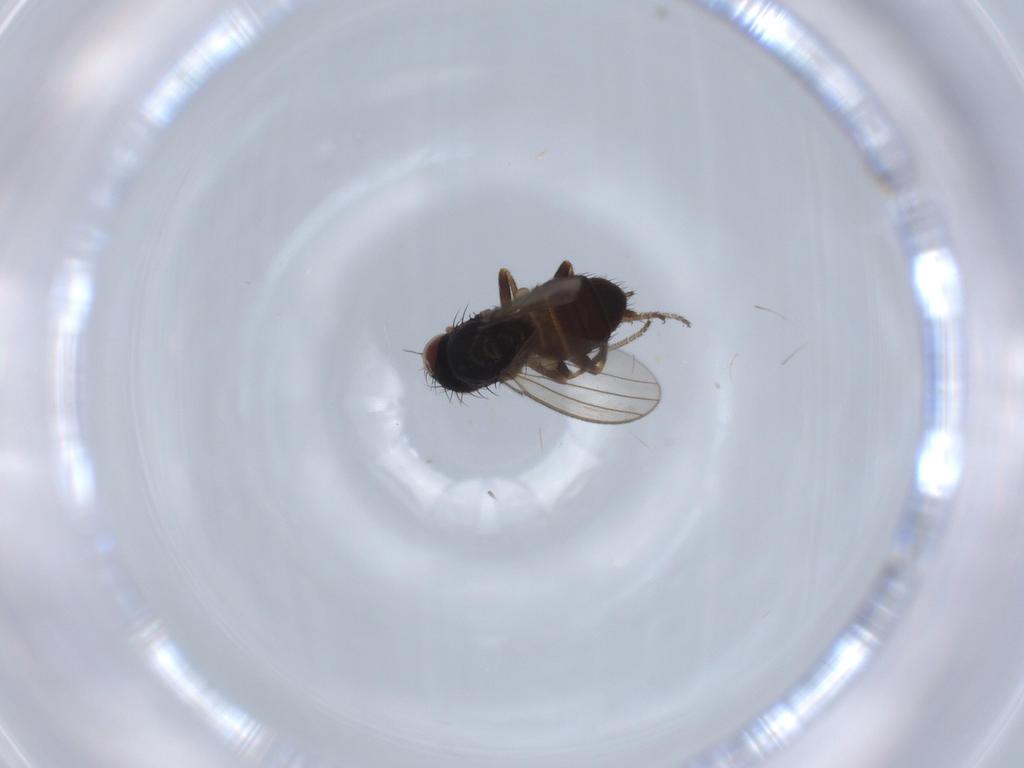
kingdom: Animalia
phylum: Arthropoda
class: Insecta
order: Diptera
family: Milichiidae
